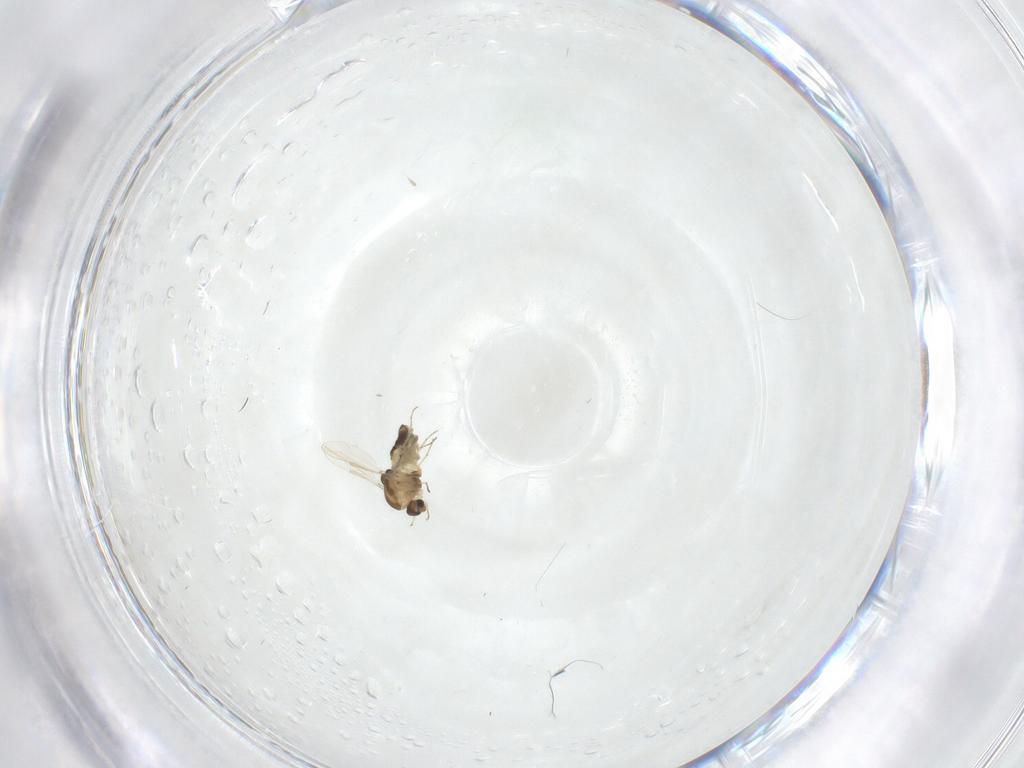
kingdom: Animalia
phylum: Arthropoda
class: Insecta
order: Diptera
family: Chironomidae
